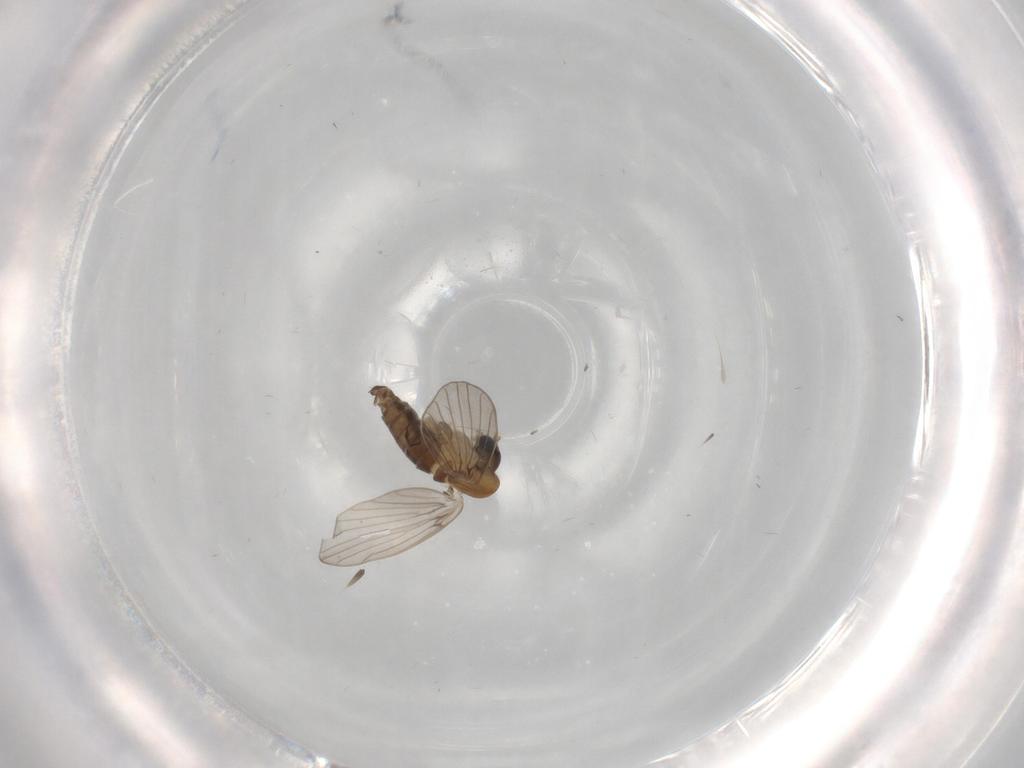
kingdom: Animalia
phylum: Arthropoda
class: Insecta
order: Diptera
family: Psychodidae
